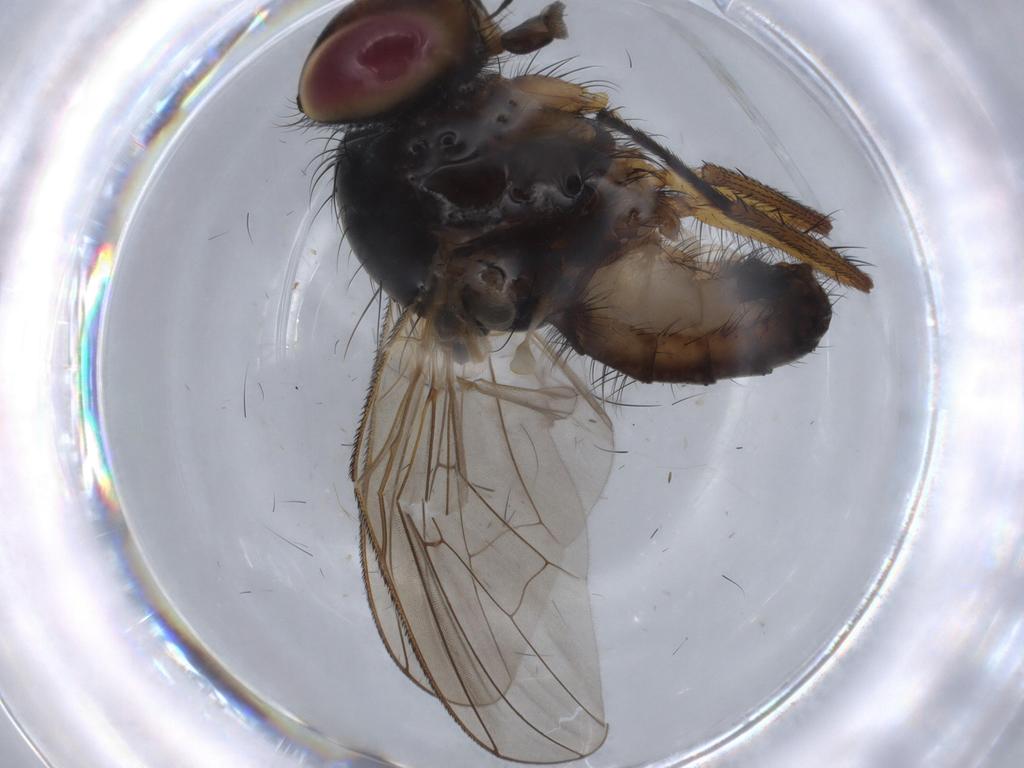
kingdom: Animalia
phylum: Arthropoda
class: Insecta
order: Diptera
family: Anthomyiidae
